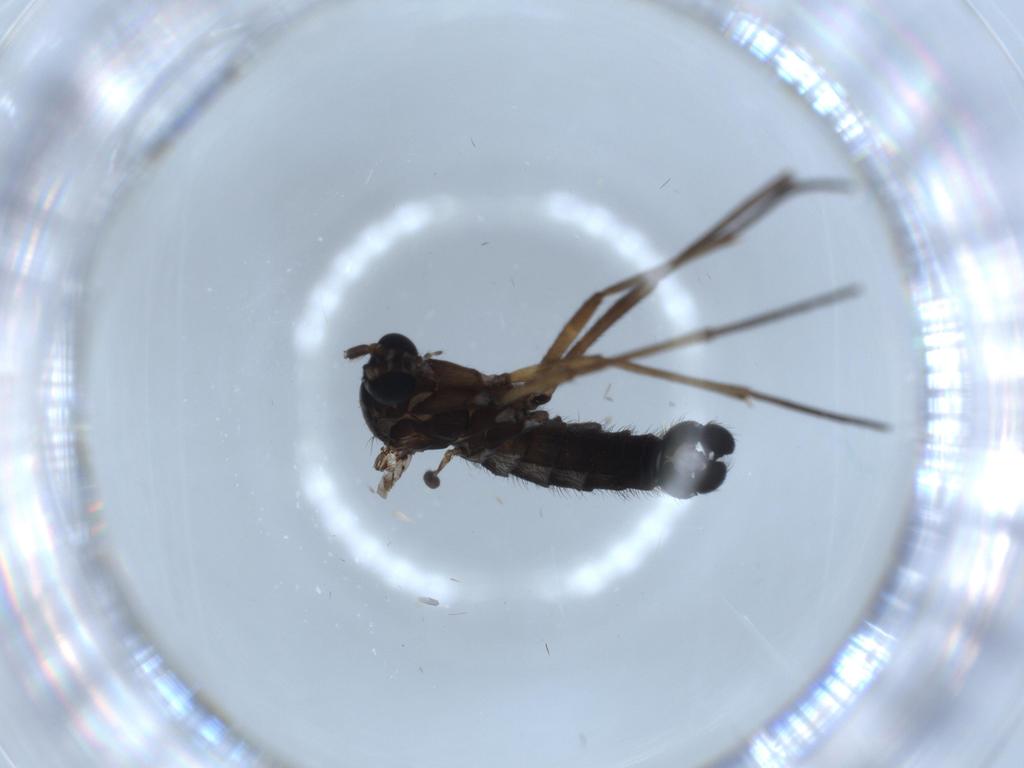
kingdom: Animalia
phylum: Arthropoda
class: Insecta
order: Diptera
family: Sciaridae
